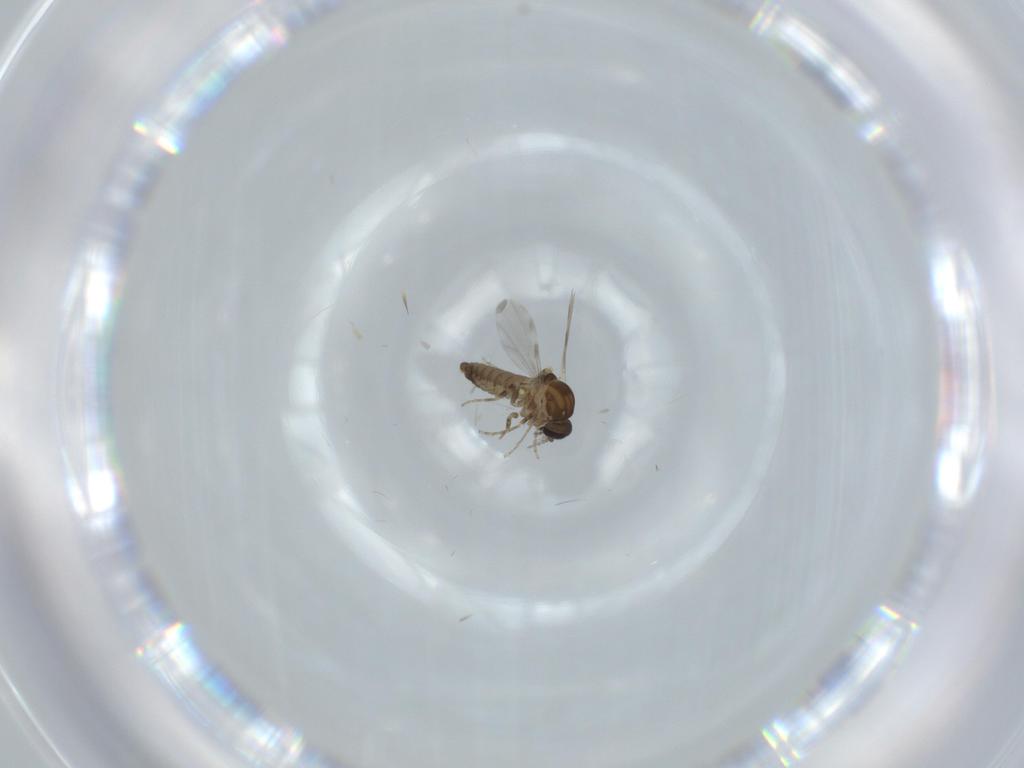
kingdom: Animalia
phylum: Arthropoda
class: Insecta
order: Diptera
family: Ceratopogonidae
